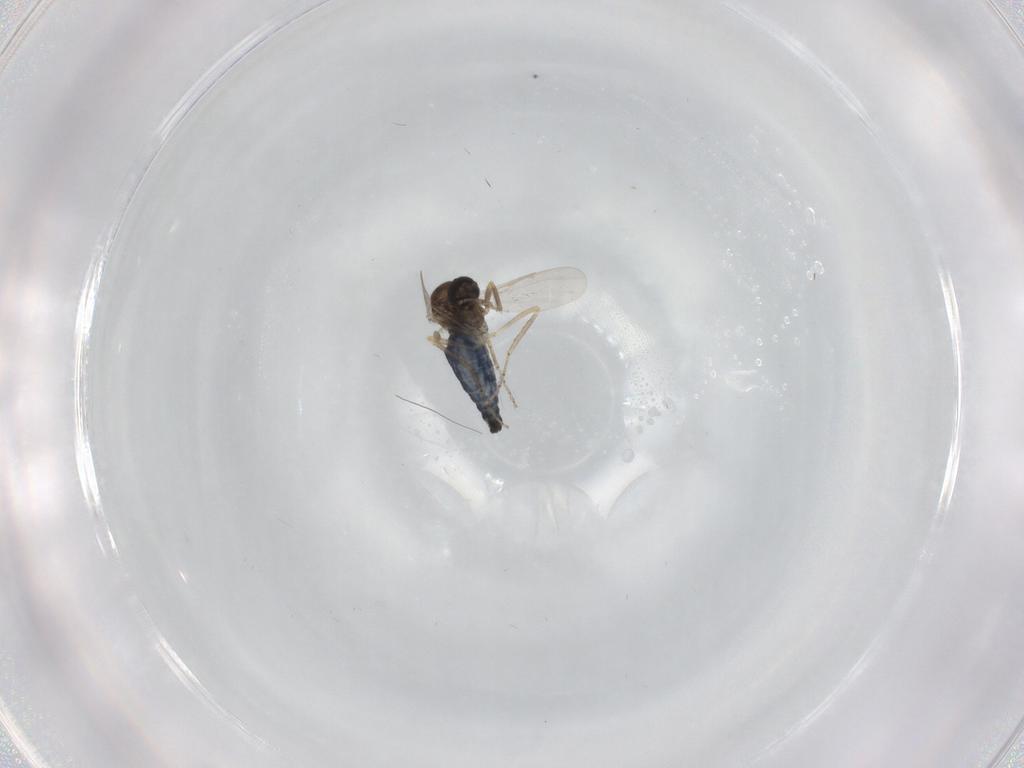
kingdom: Animalia
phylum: Arthropoda
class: Insecta
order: Diptera
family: Ceratopogonidae
